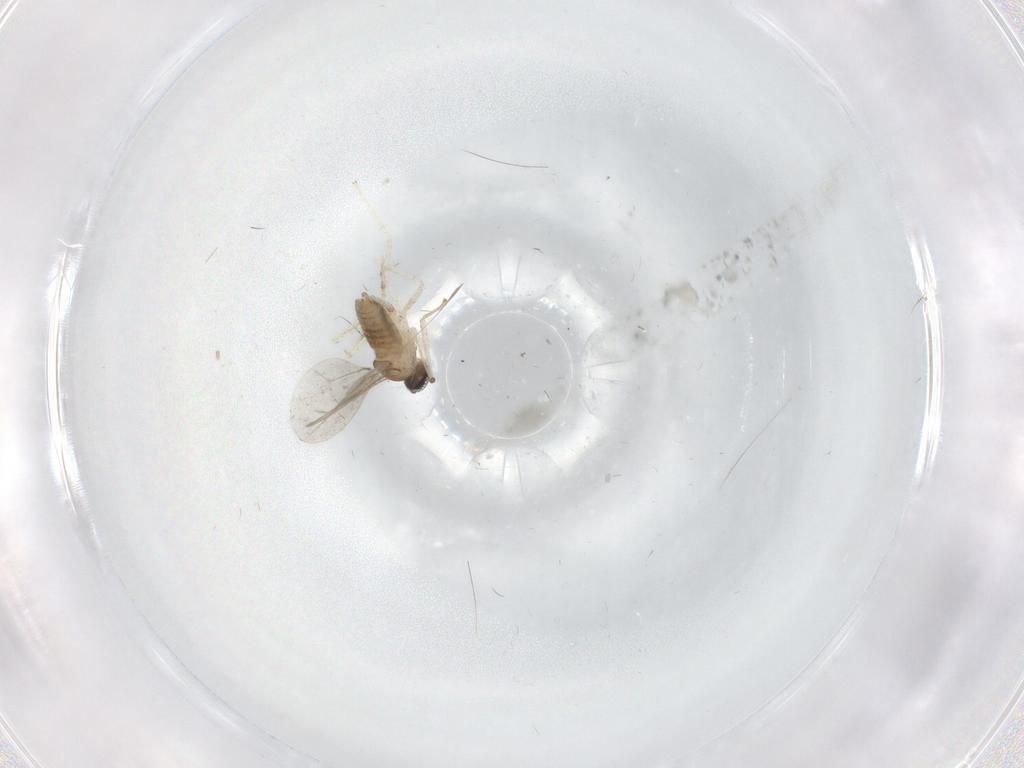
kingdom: Animalia
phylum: Arthropoda
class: Insecta
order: Diptera
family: Cecidomyiidae
